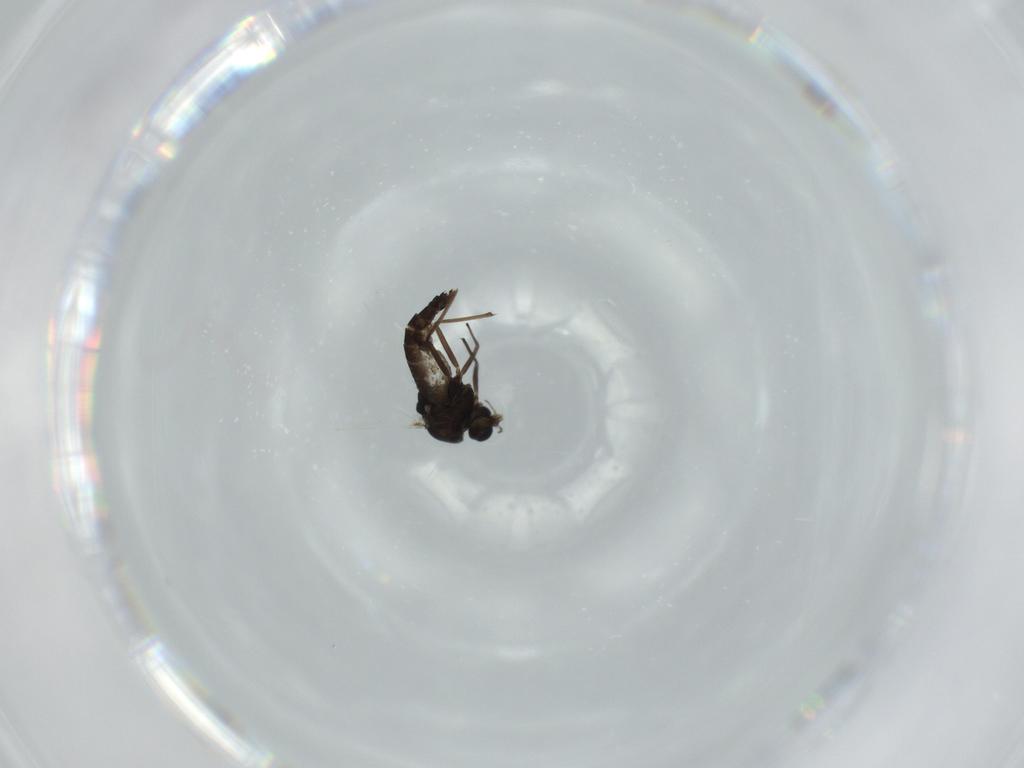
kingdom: Animalia
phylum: Arthropoda
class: Insecta
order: Diptera
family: Chironomidae
